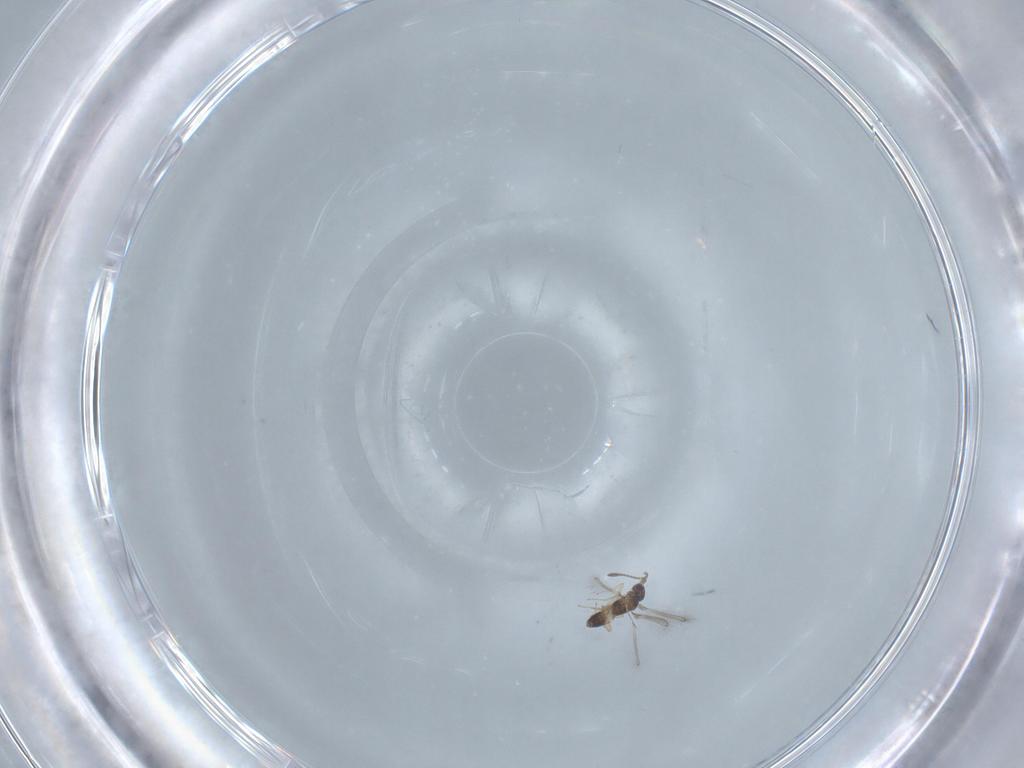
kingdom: Animalia
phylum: Arthropoda
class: Insecta
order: Hymenoptera
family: Mymaridae
